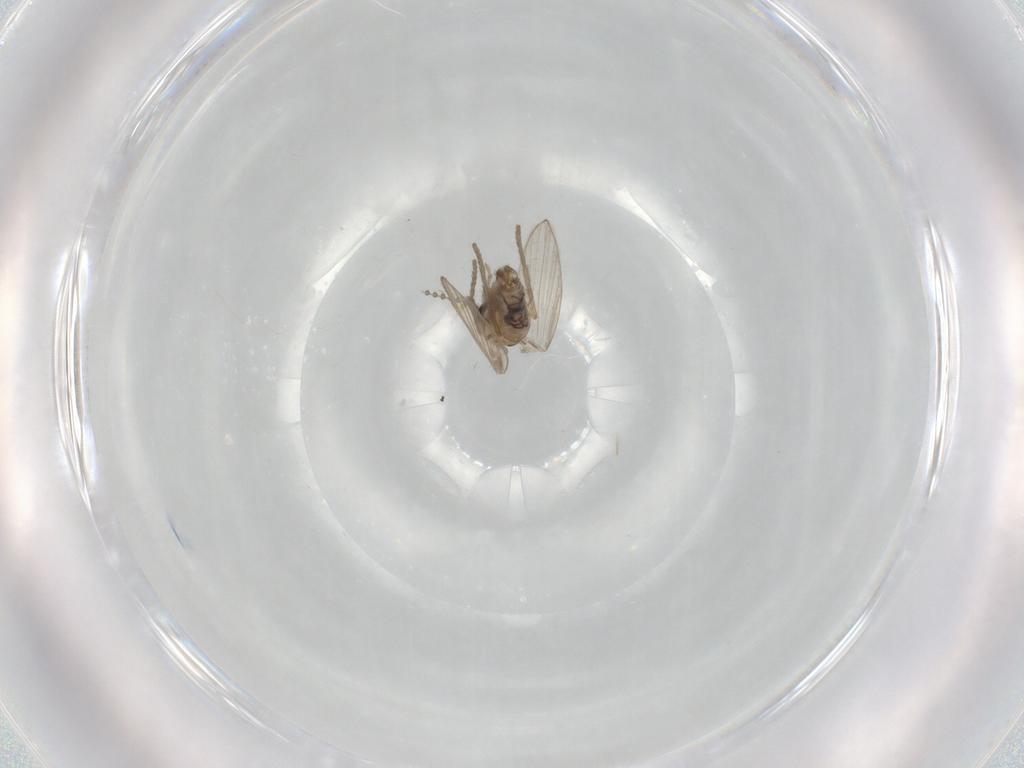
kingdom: Animalia
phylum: Arthropoda
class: Insecta
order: Diptera
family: Psychodidae
